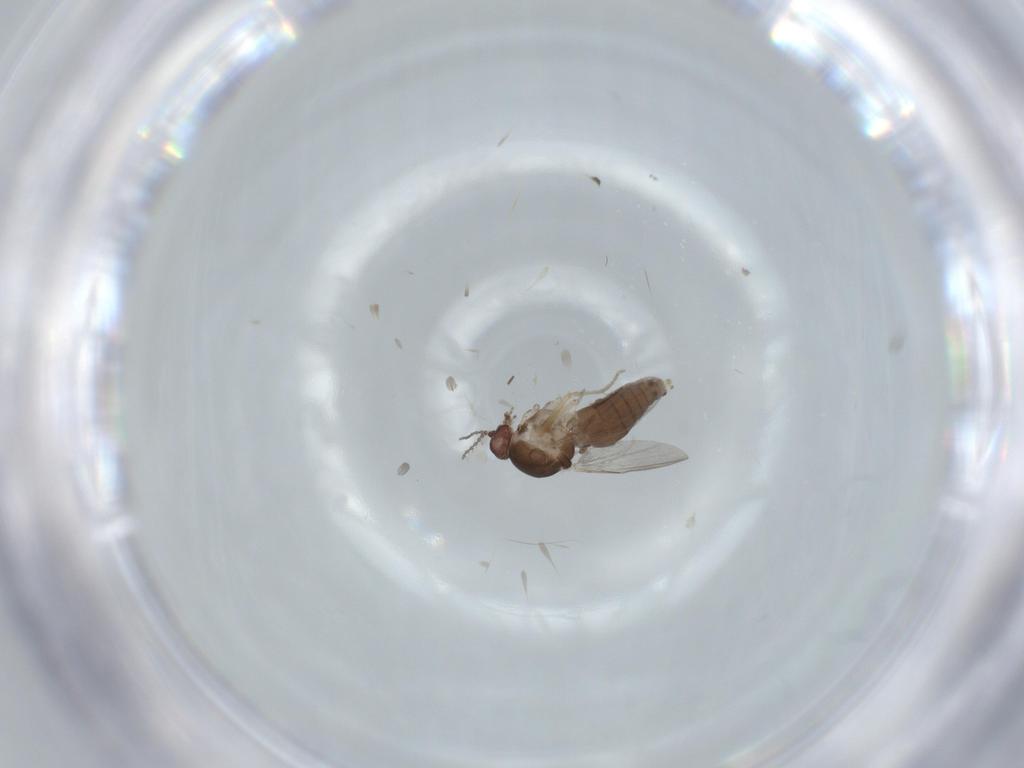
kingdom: Animalia
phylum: Arthropoda
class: Insecta
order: Diptera
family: Ceratopogonidae
